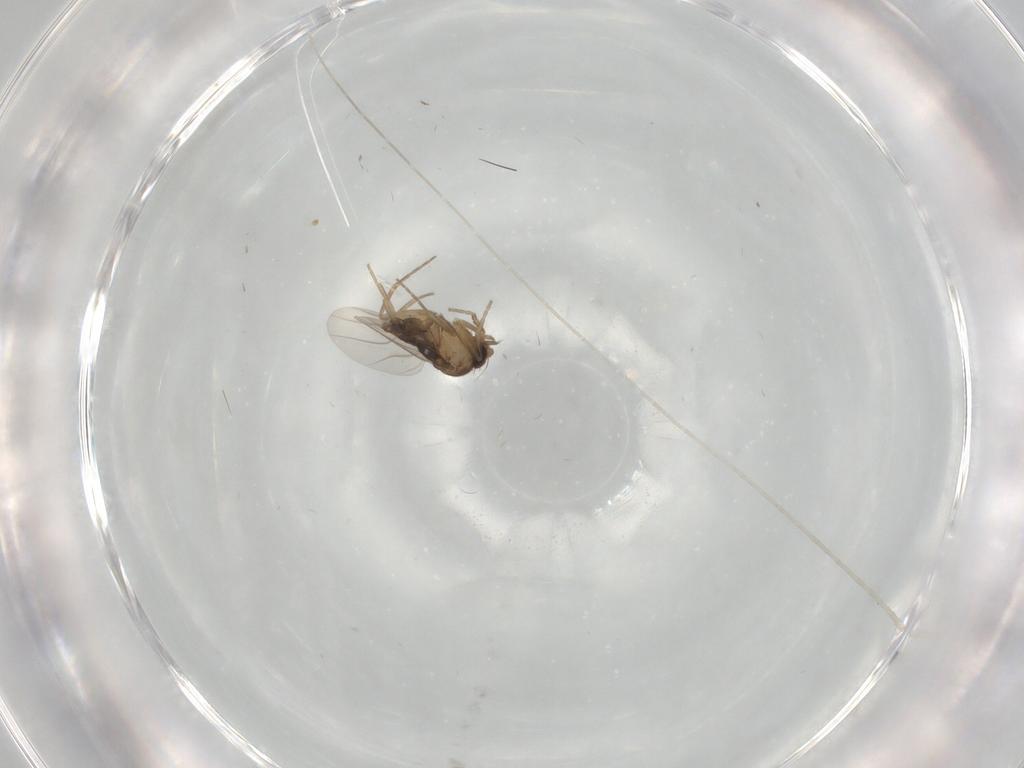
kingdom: Animalia
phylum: Arthropoda
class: Insecta
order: Diptera
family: Phoridae
